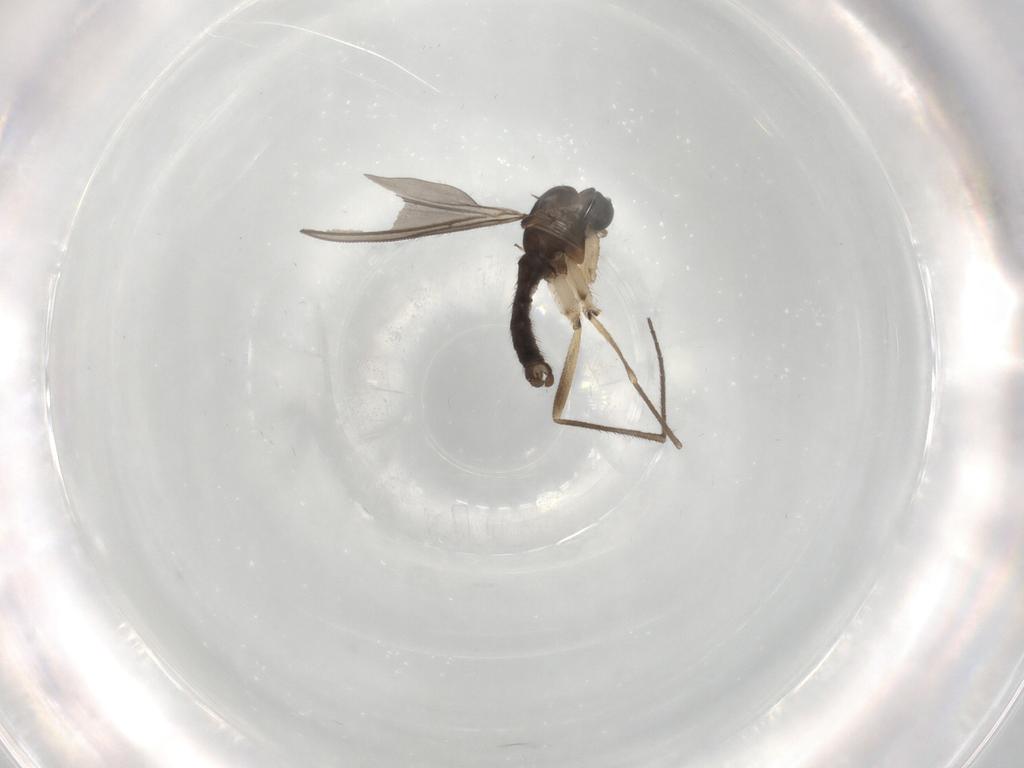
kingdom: Animalia
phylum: Arthropoda
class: Insecta
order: Diptera
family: Sciaridae
